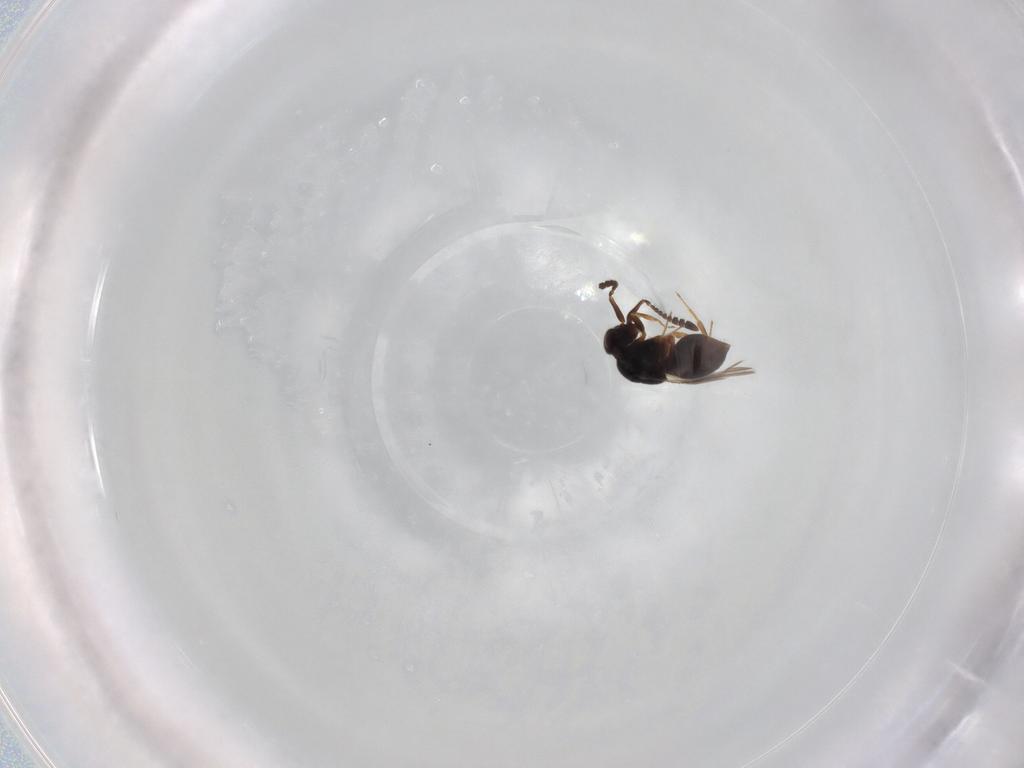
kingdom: Animalia
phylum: Arthropoda
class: Insecta
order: Hymenoptera
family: Ceraphronidae
